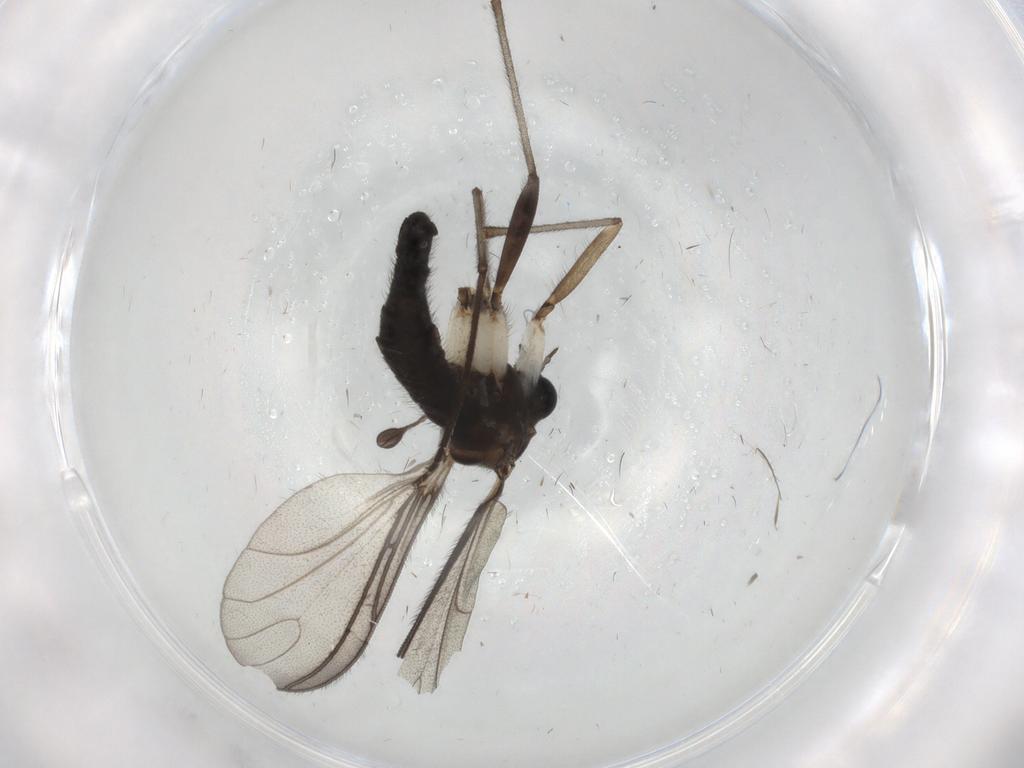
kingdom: Animalia
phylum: Arthropoda
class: Insecta
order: Diptera
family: Sciaridae
